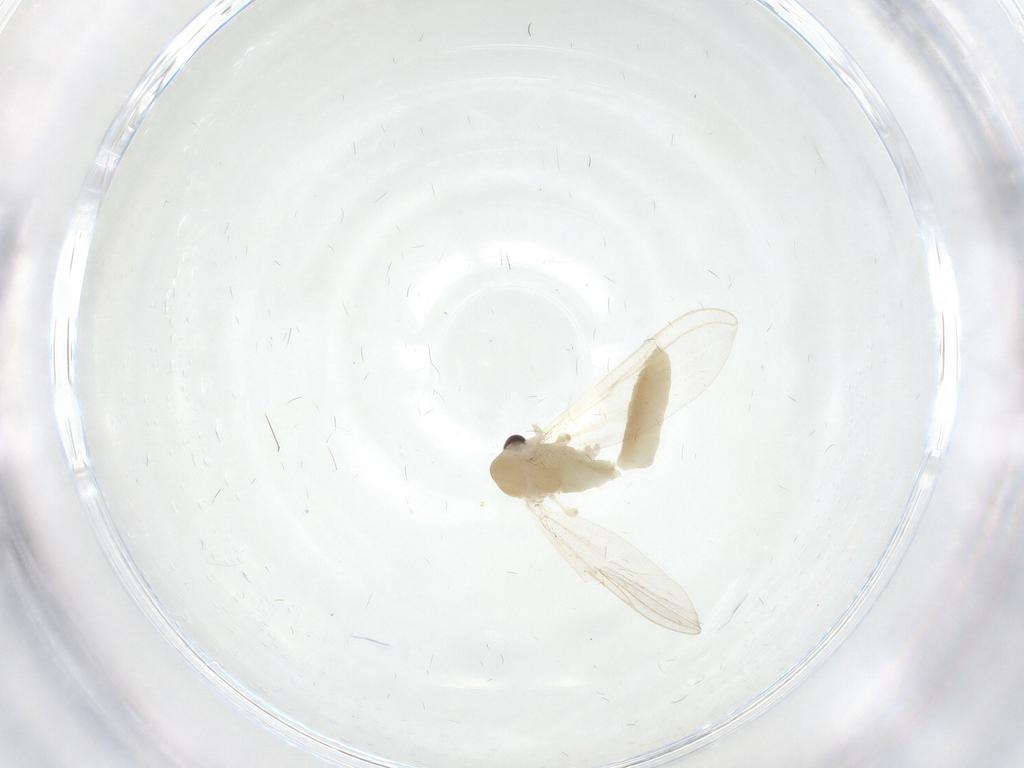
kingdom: Animalia
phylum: Arthropoda
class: Insecta
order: Diptera
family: Chironomidae
